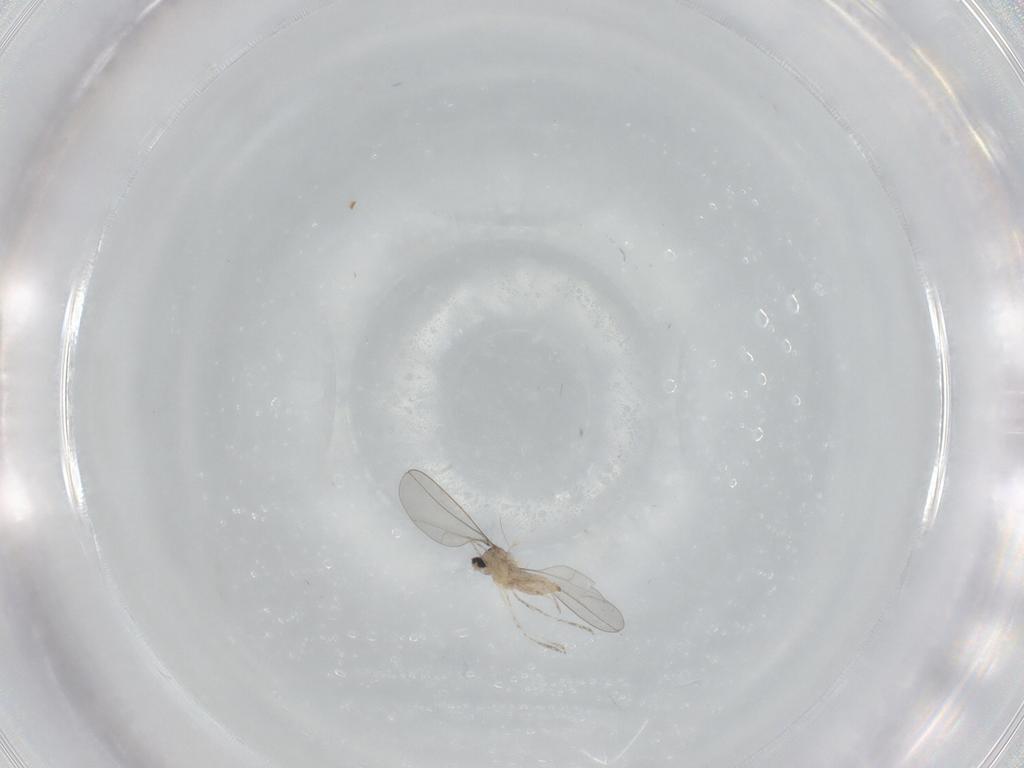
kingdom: Animalia
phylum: Arthropoda
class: Insecta
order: Diptera
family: Cecidomyiidae
